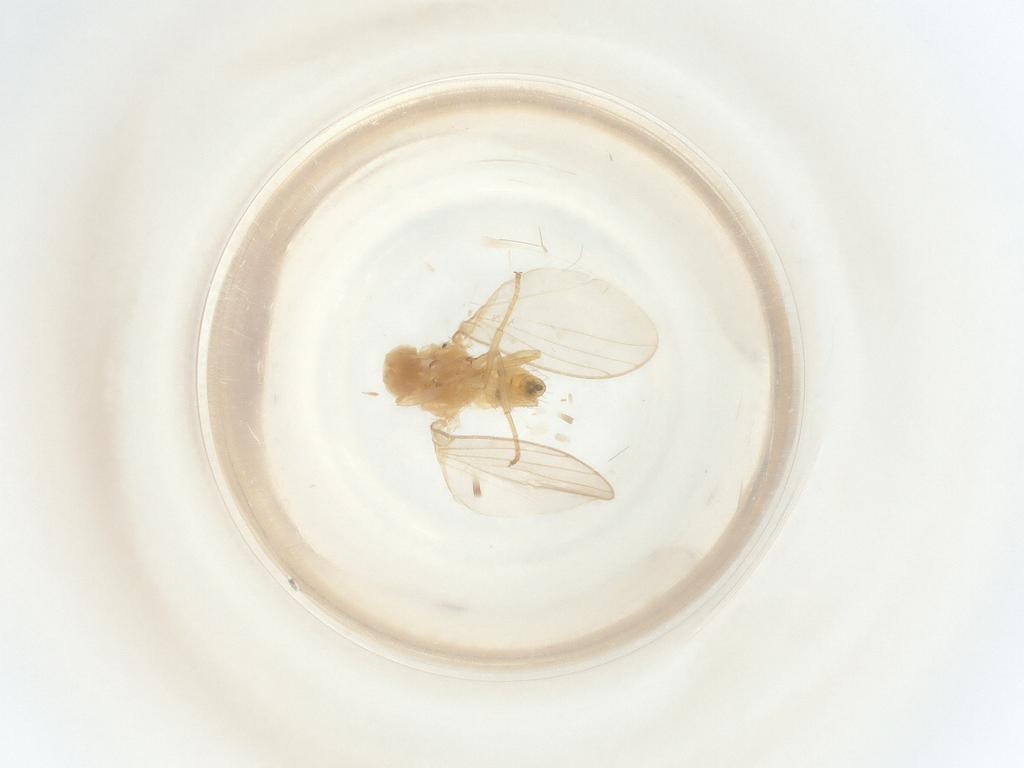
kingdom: Animalia
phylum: Arthropoda
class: Insecta
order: Diptera
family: Agromyzidae
